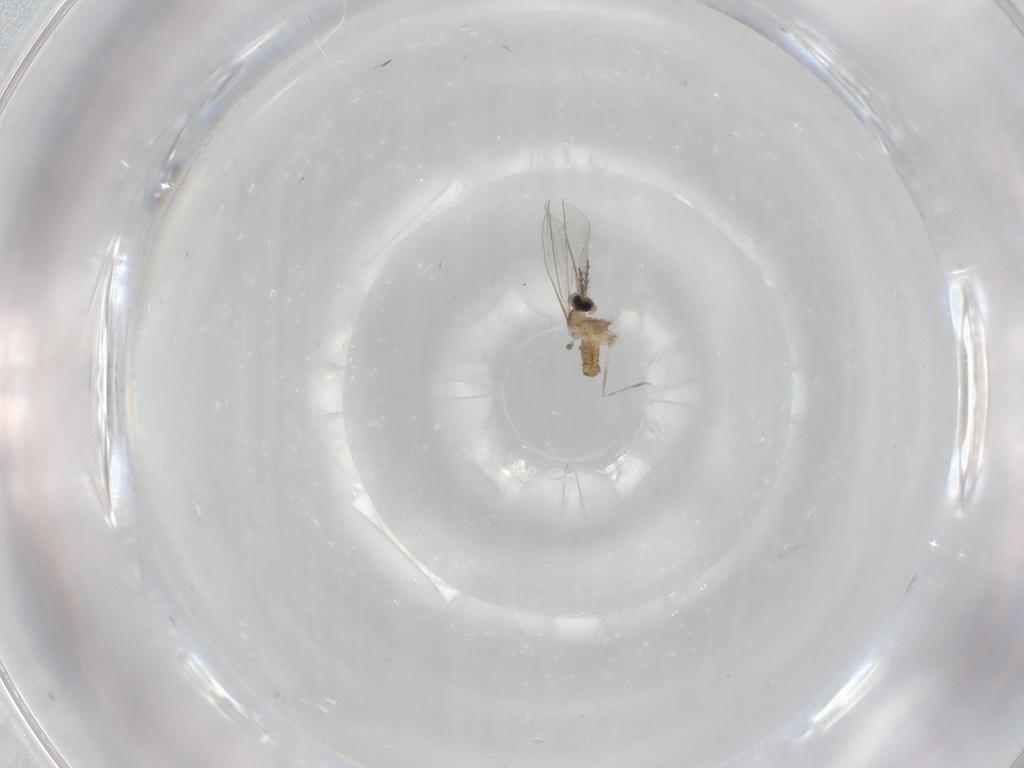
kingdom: Animalia
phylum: Arthropoda
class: Insecta
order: Diptera
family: Cecidomyiidae
